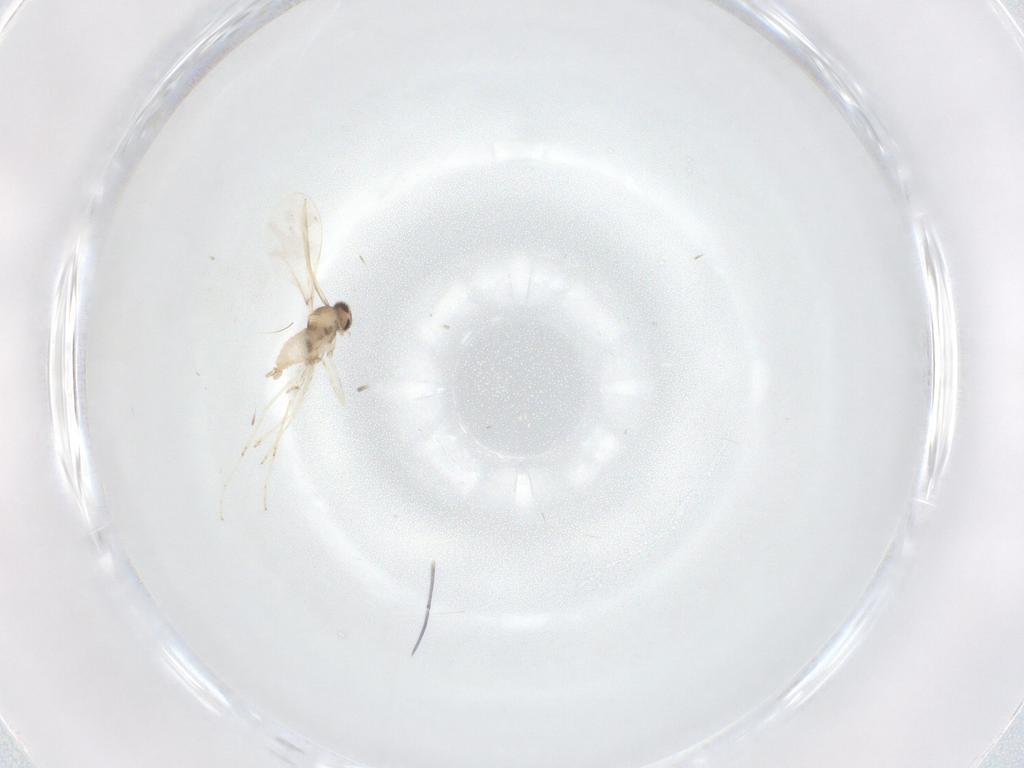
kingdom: Animalia
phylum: Arthropoda
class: Insecta
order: Diptera
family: Cecidomyiidae
